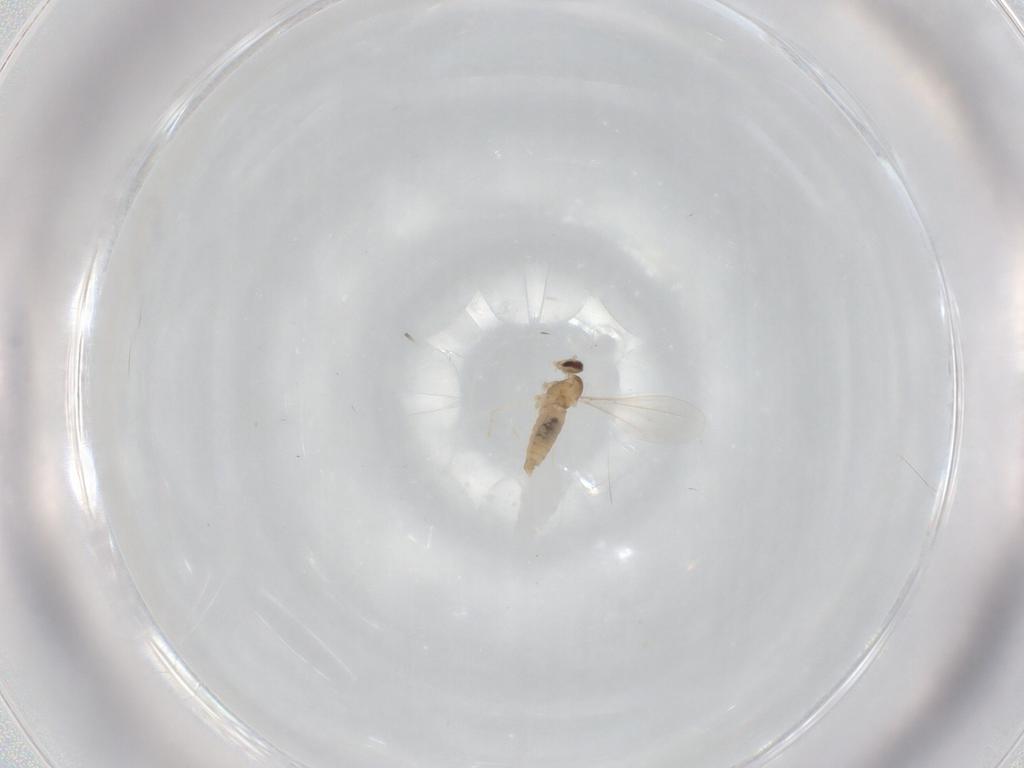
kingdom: Animalia
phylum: Arthropoda
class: Insecta
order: Diptera
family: Cecidomyiidae
